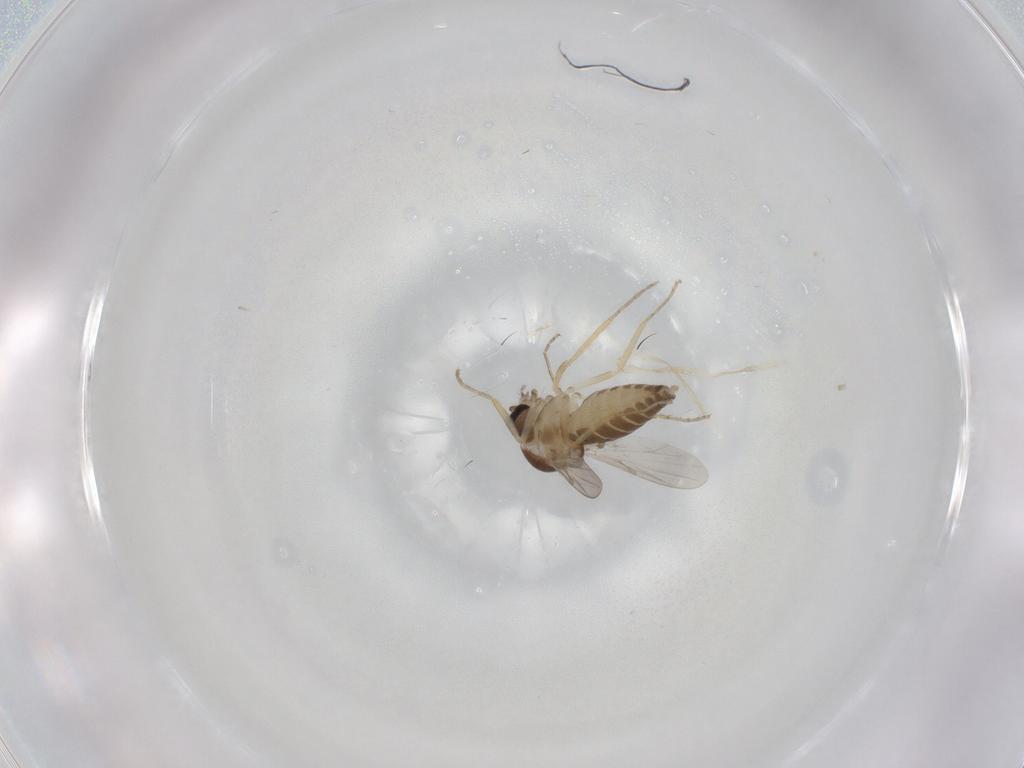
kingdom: Animalia
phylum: Arthropoda
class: Insecta
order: Diptera
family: Ceratopogonidae
